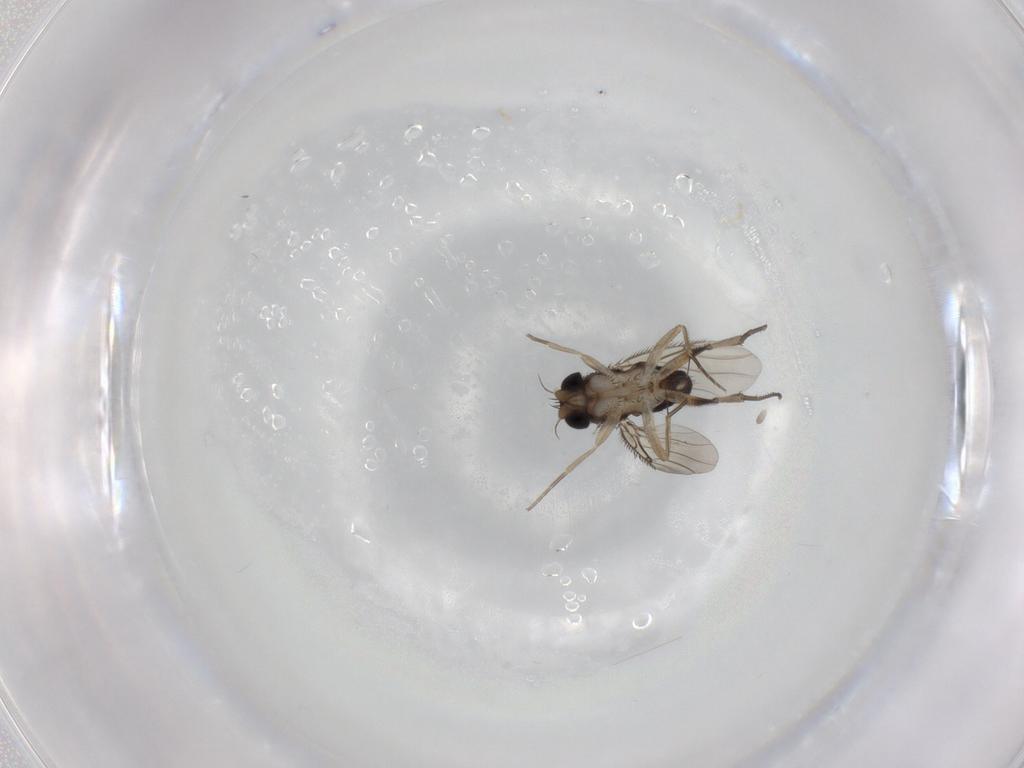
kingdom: Animalia
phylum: Arthropoda
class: Insecta
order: Diptera
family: Phoridae
